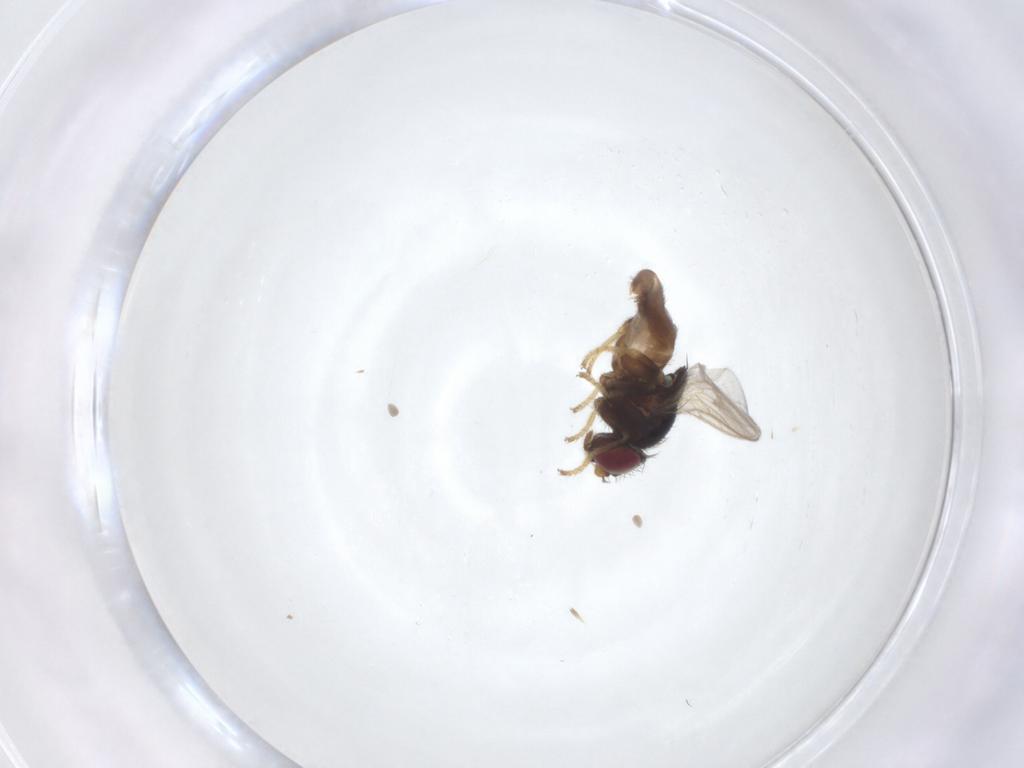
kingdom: Animalia
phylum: Arthropoda
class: Insecta
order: Diptera
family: Chloropidae
